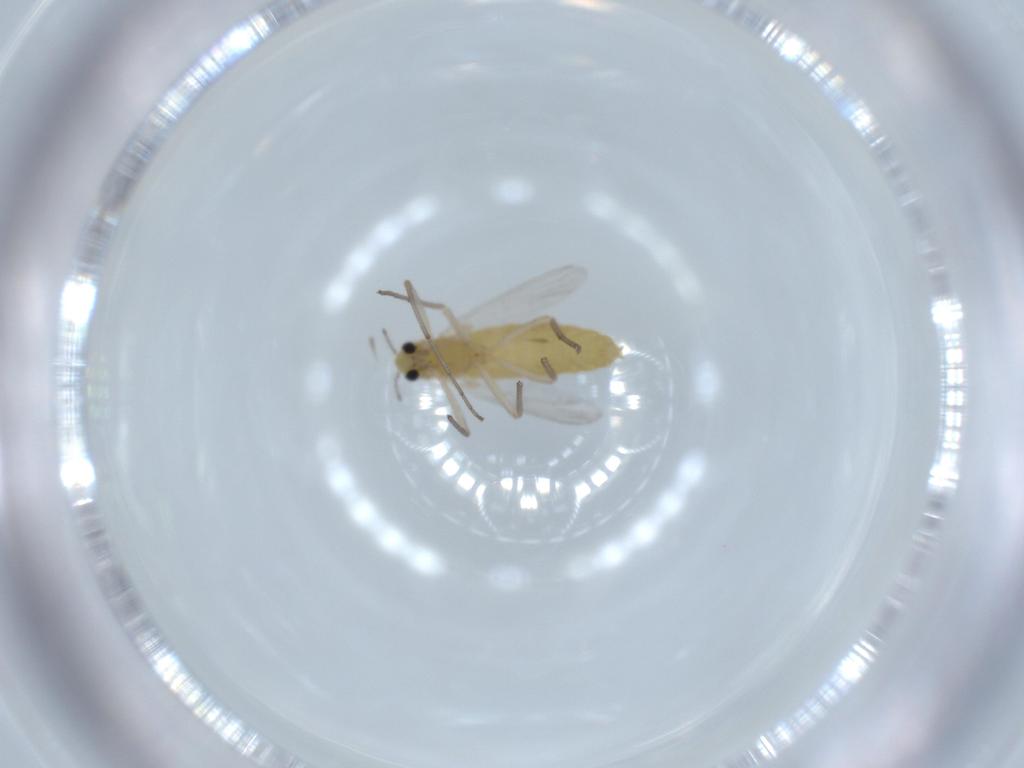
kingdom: Animalia
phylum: Arthropoda
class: Insecta
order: Diptera
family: Chironomidae
